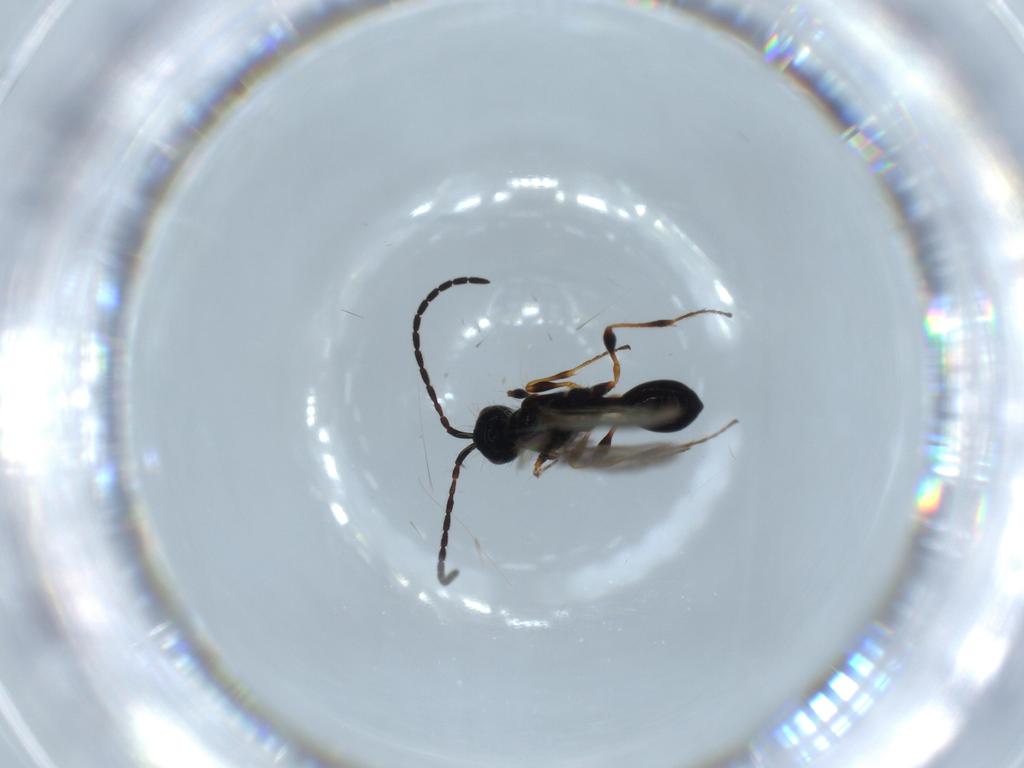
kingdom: Animalia
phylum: Arthropoda
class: Insecta
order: Hymenoptera
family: Diapriidae
